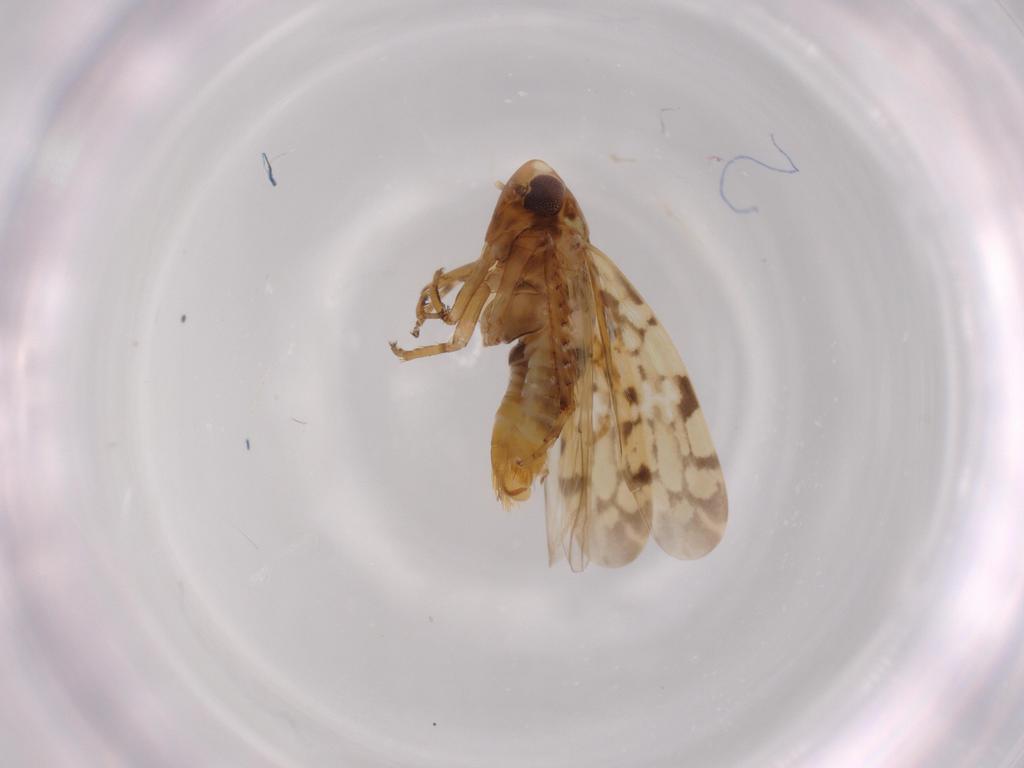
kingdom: Animalia
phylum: Arthropoda
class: Insecta
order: Hemiptera
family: Cicadellidae
